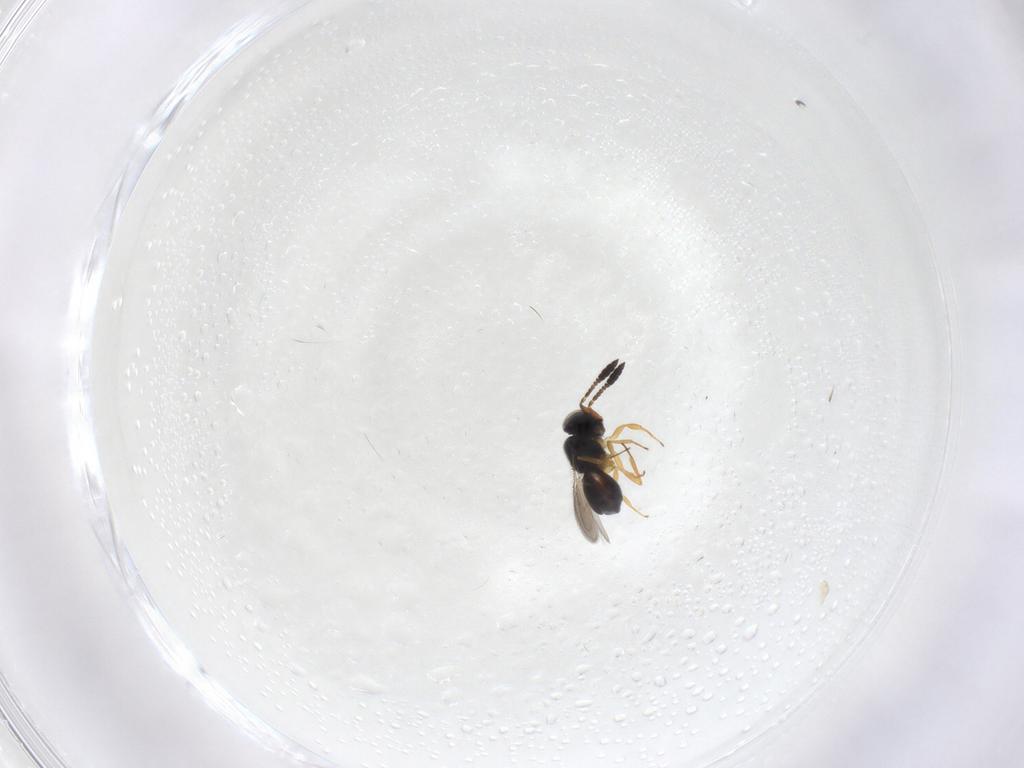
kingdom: Animalia
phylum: Arthropoda
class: Insecta
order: Hymenoptera
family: Scelionidae
